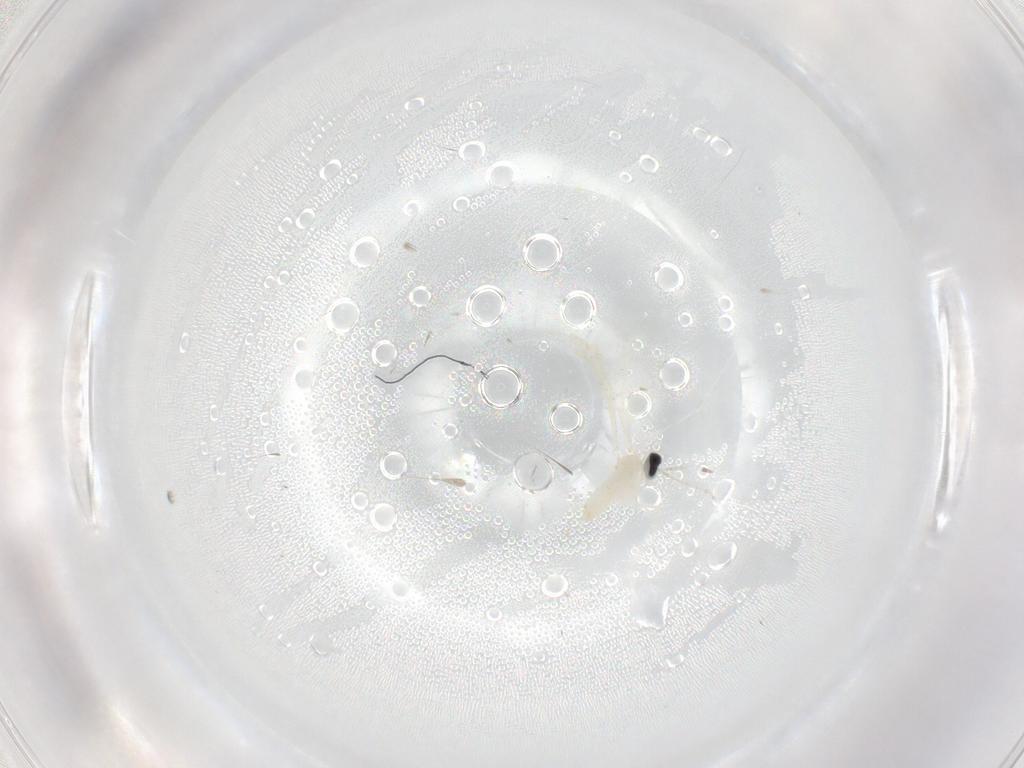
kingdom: Animalia
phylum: Arthropoda
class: Insecta
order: Diptera
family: Cecidomyiidae
